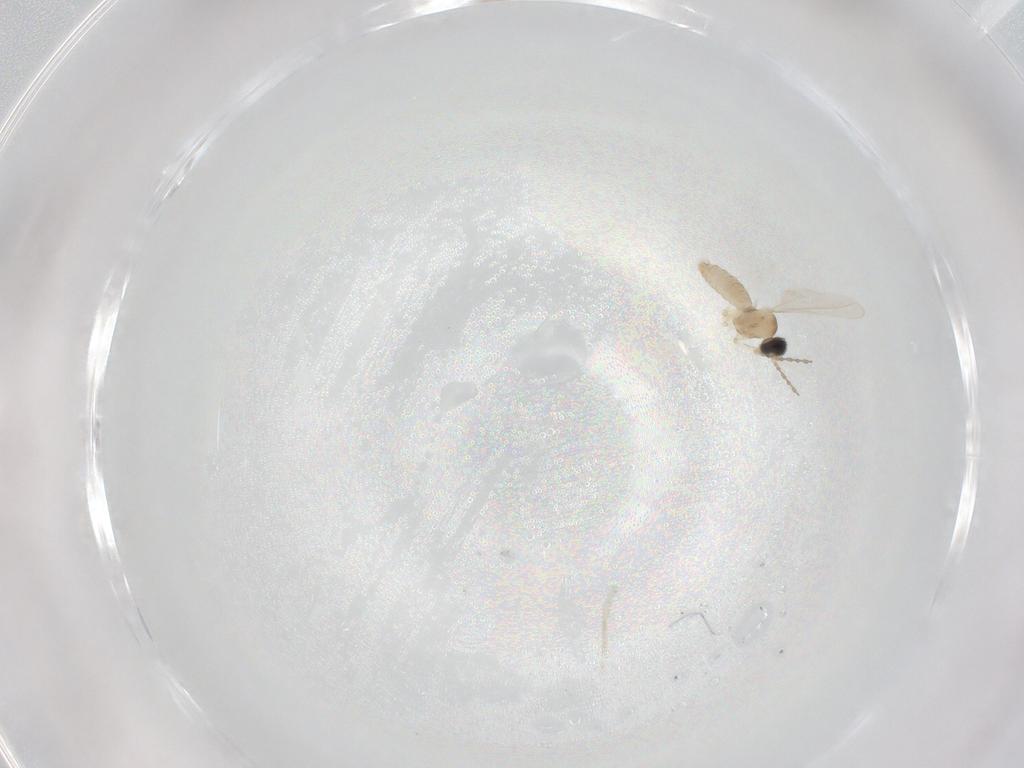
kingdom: Animalia
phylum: Arthropoda
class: Insecta
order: Diptera
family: Cecidomyiidae
